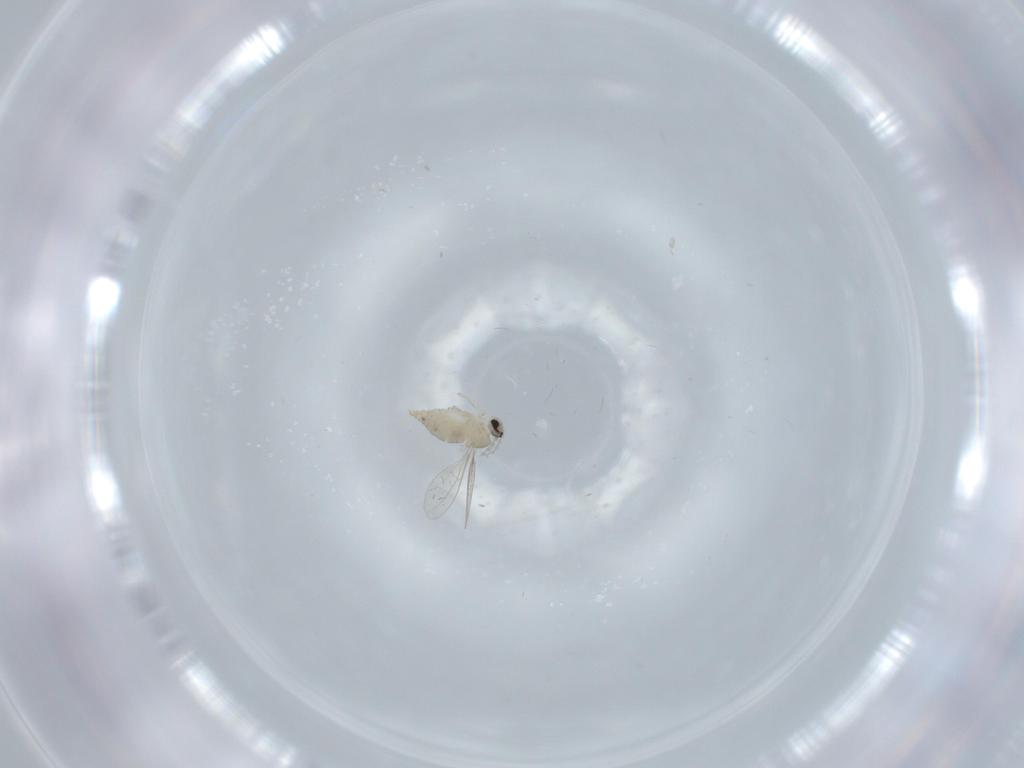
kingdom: Animalia
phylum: Arthropoda
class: Insecta
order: Diptera
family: Cecidomyiidae
